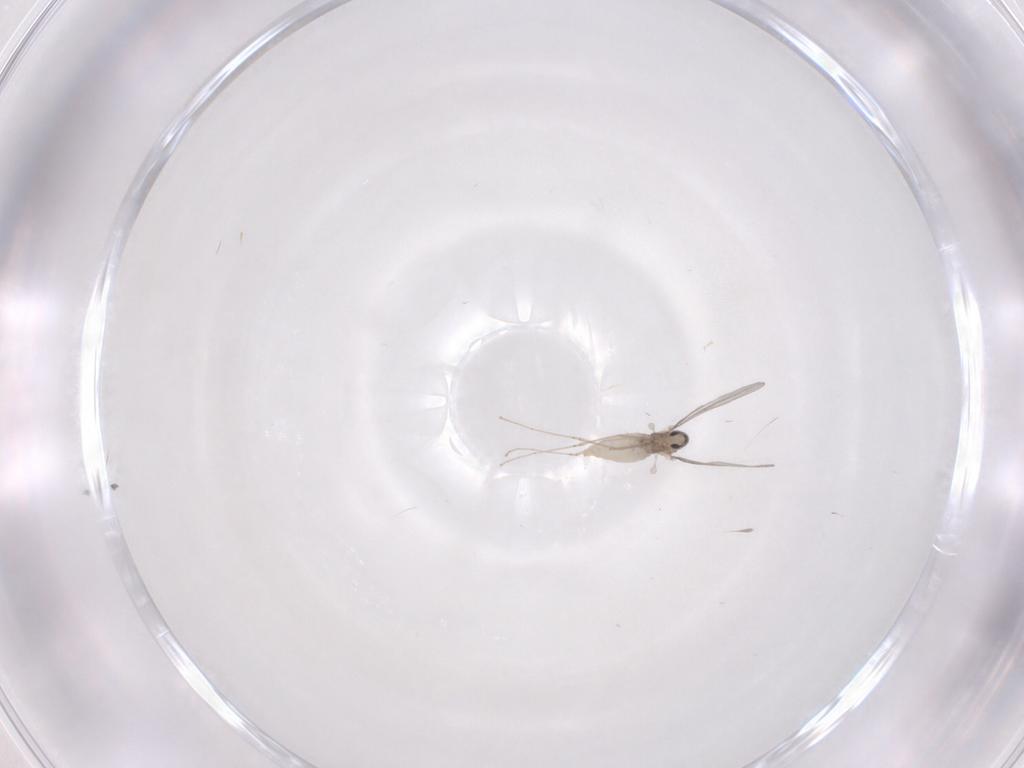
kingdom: Animalia
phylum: Arthropoda
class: Insecta
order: Diptera
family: Cecidomyiidae
